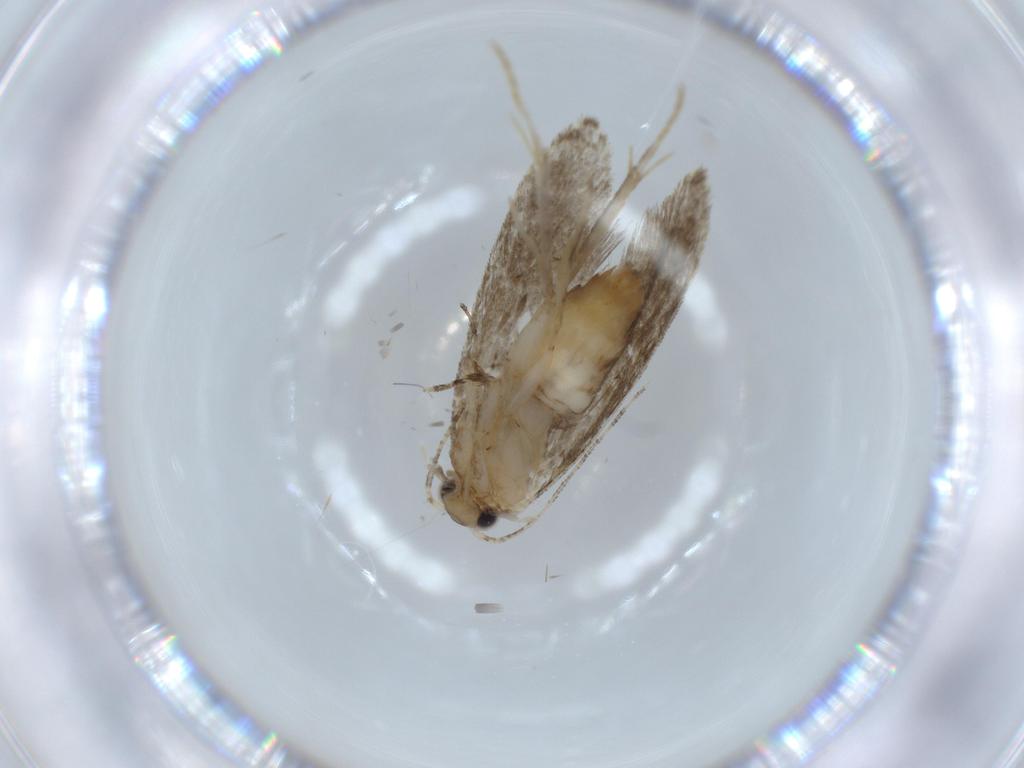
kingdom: Animalia
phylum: Arthropoda
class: Insecta
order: Lepidoptera
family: Tineidae
